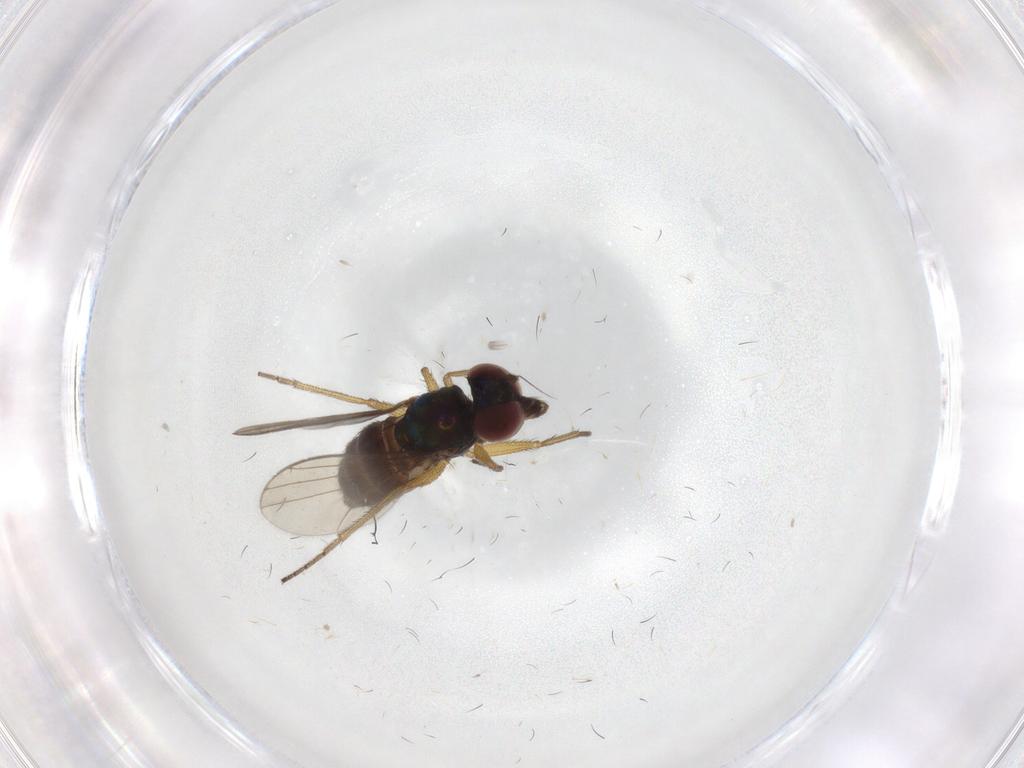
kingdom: Animalia
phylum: Arthropoda
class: Insecta
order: Diptera
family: Dolichopodidae
